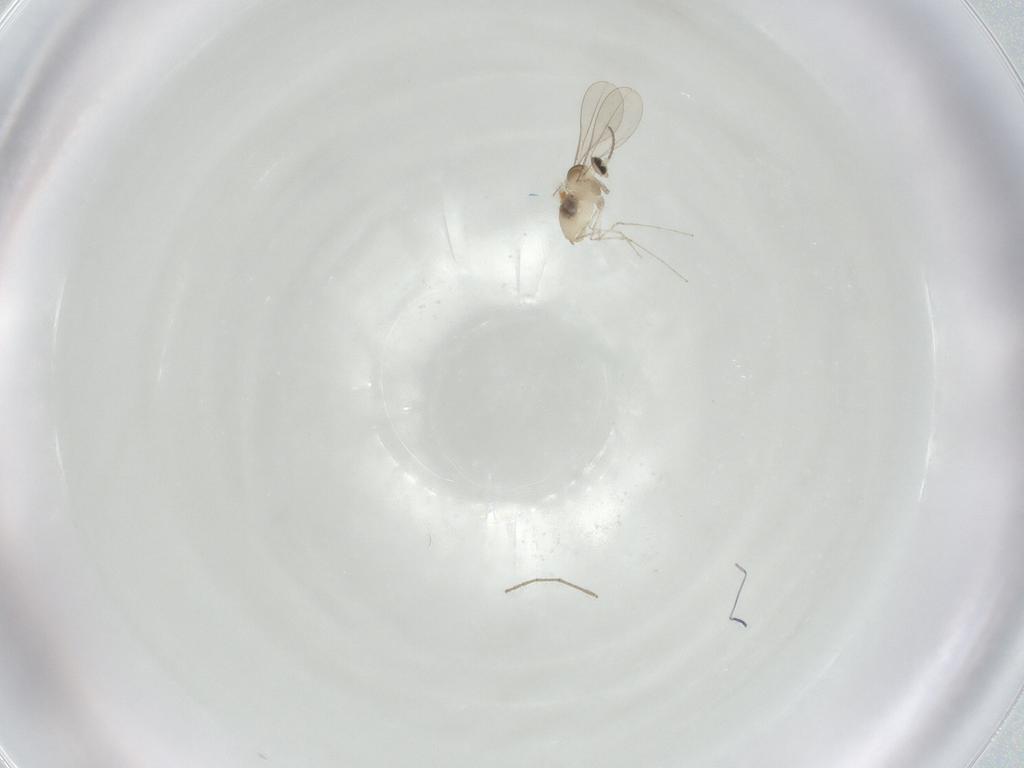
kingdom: Animalia
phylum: Arthropoda
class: Insecta
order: Diptera
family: Cecidomyiidae
